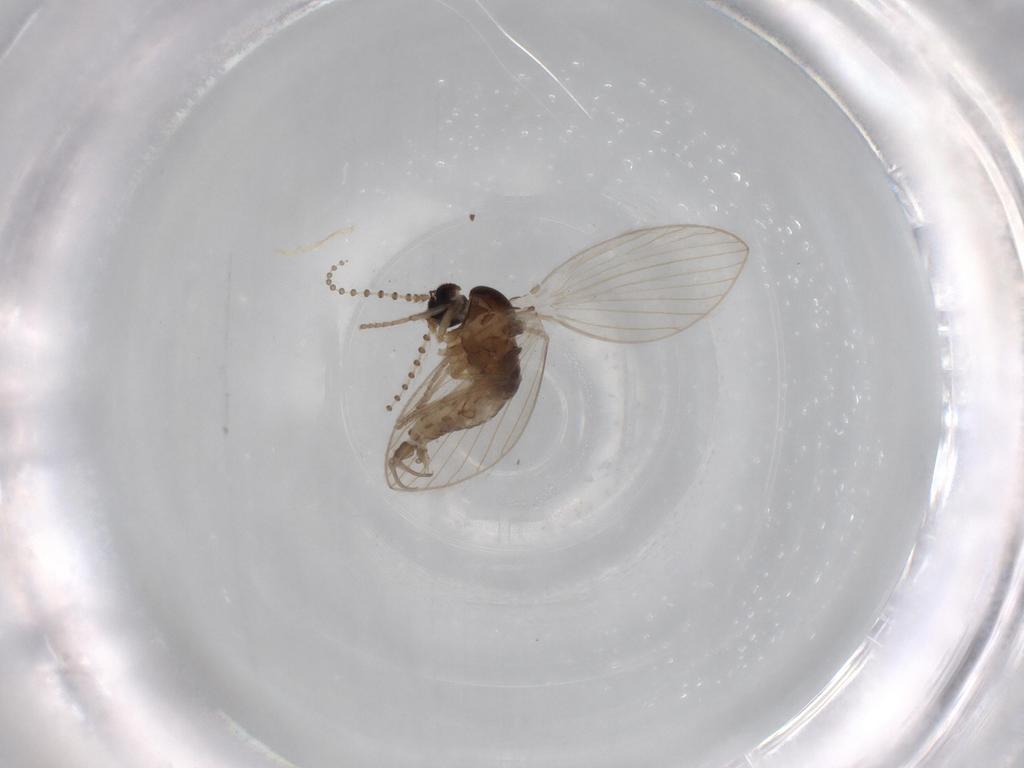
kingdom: Animalia
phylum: Arthropoda
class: Insecta
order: Diptera
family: Psychodidae
